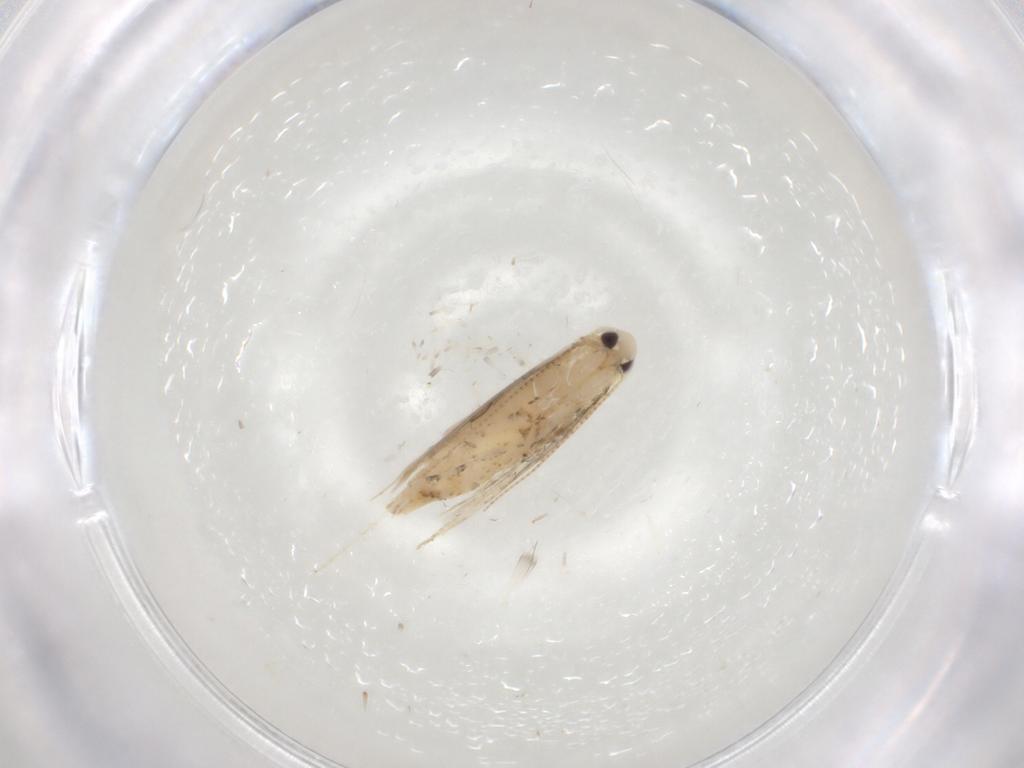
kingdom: Animalia
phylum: Arthropoda
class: Insecta
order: Lepidoptera
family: Gracillariidae
